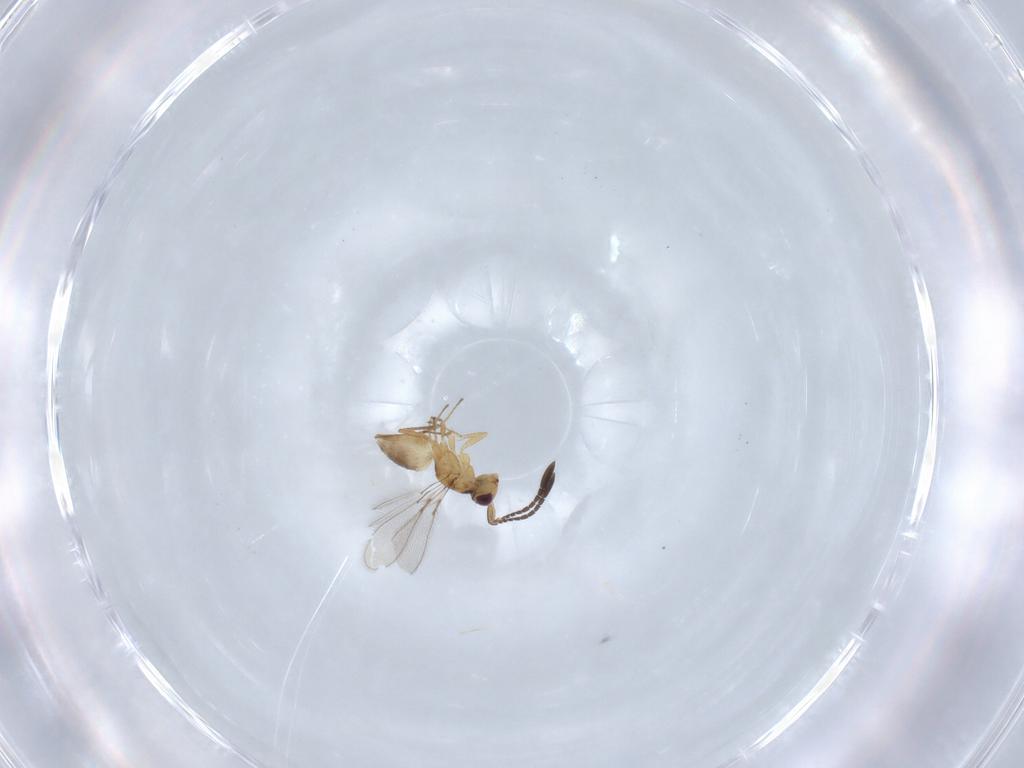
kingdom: Animalia
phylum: Arthropoda
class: Insecta
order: Hymenoptera
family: Mymaridae
